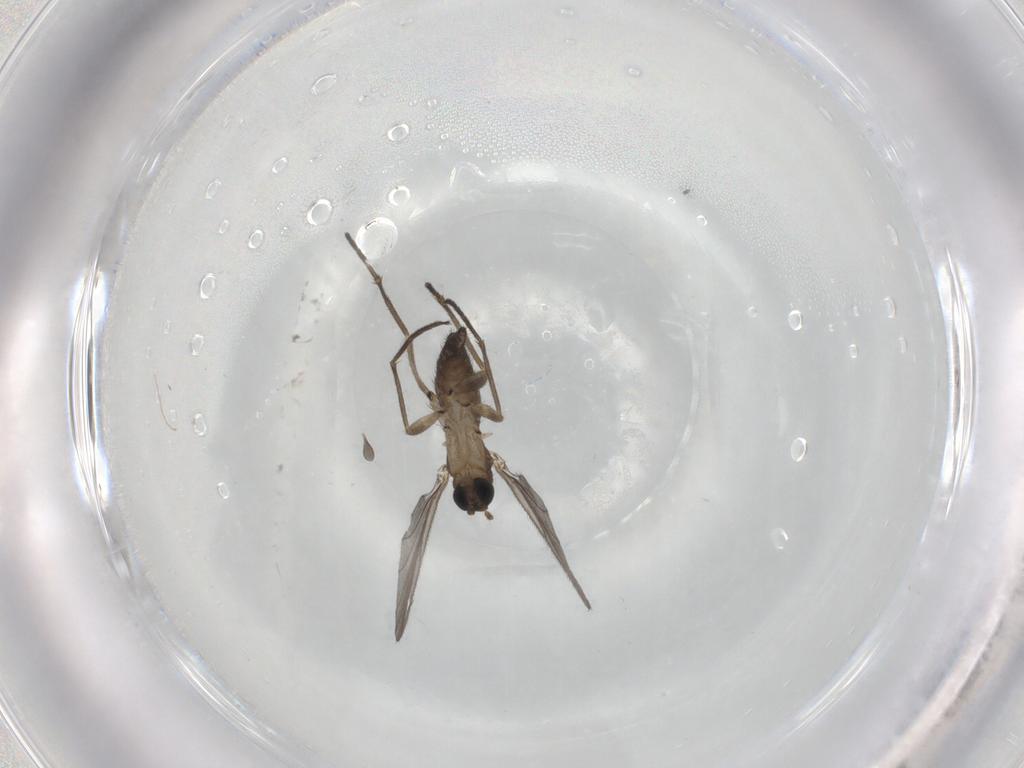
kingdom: Animalia
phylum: Arthropoda
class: Insecta
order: Diptera
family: Sciaridae
